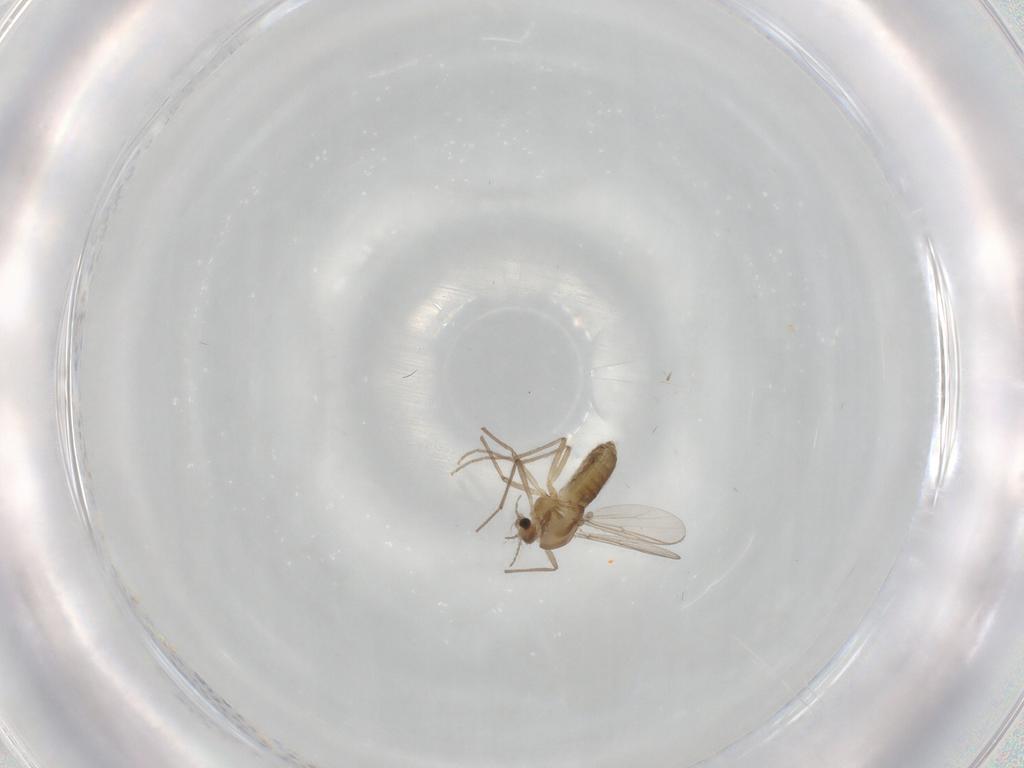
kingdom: Animalia
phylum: Arthropoda
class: Insecta
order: Diptera
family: Chironomidae
